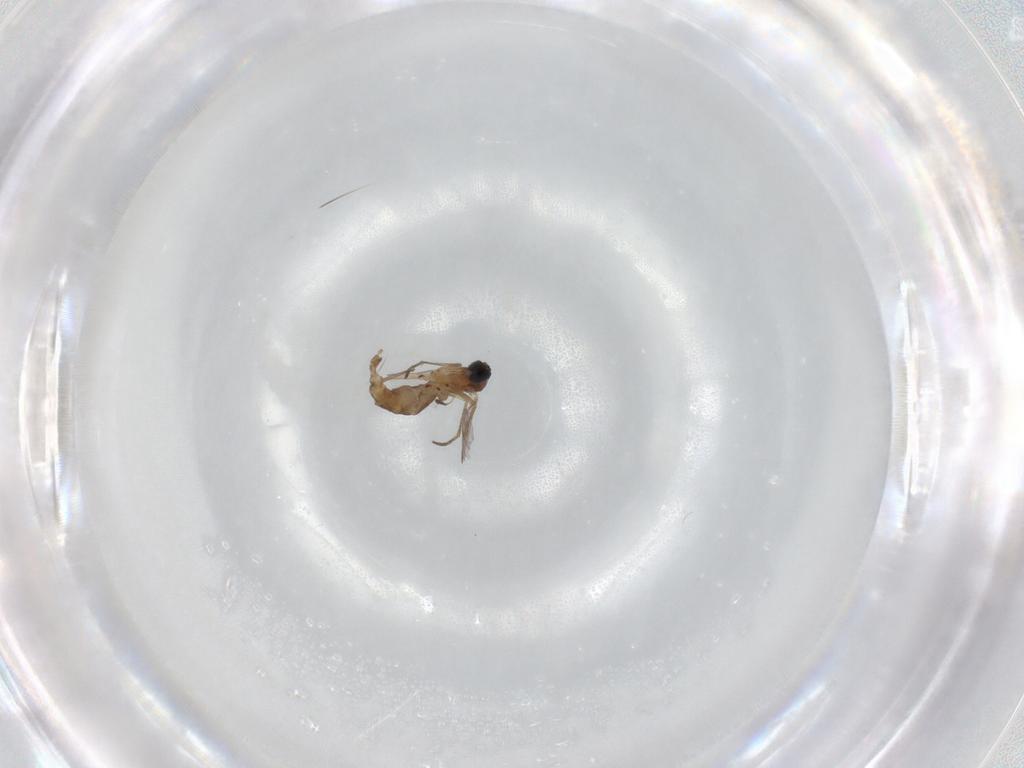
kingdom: Animalia
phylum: Arthropoda
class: Insecta
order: Diptera
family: Sciaridae
